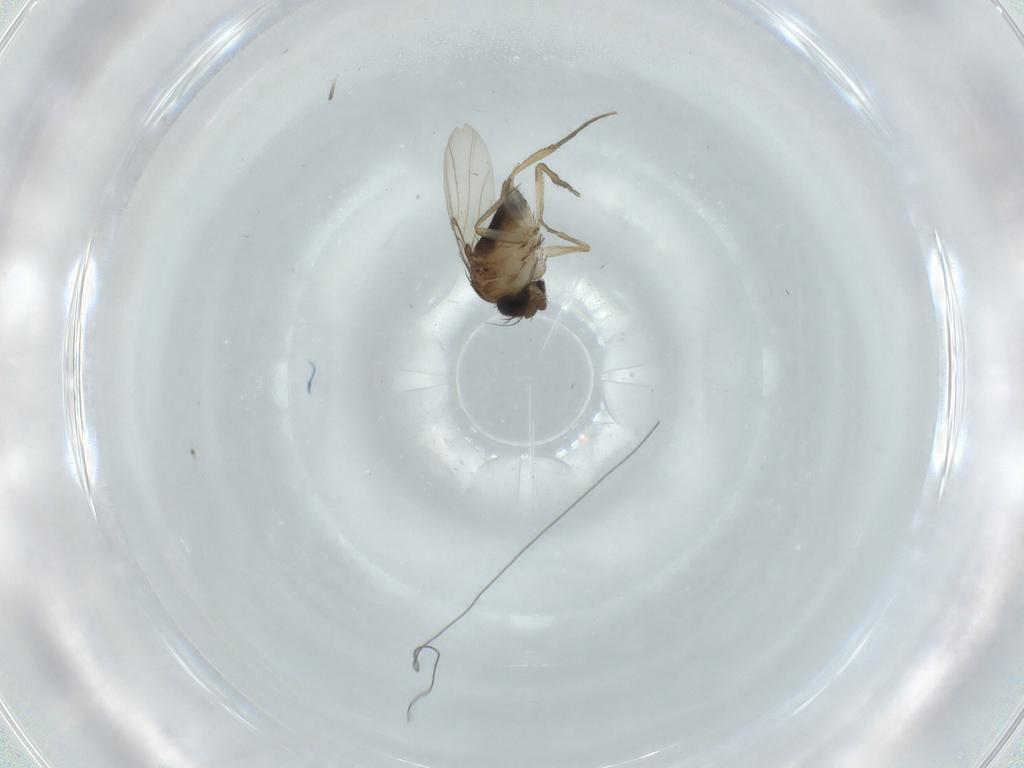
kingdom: Animalia
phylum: Arthropoda
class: Insecta
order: Diptera
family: Phoridae
